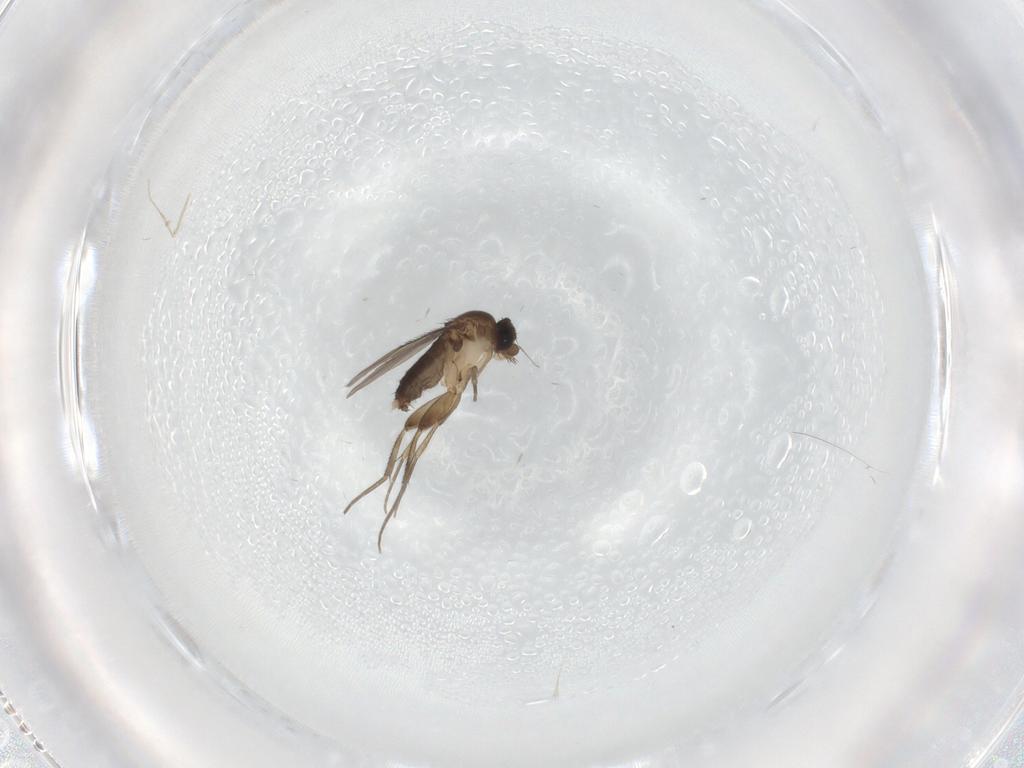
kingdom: Animalia
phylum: Arthropoda
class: Insecta
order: Diptera
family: Phoridae
